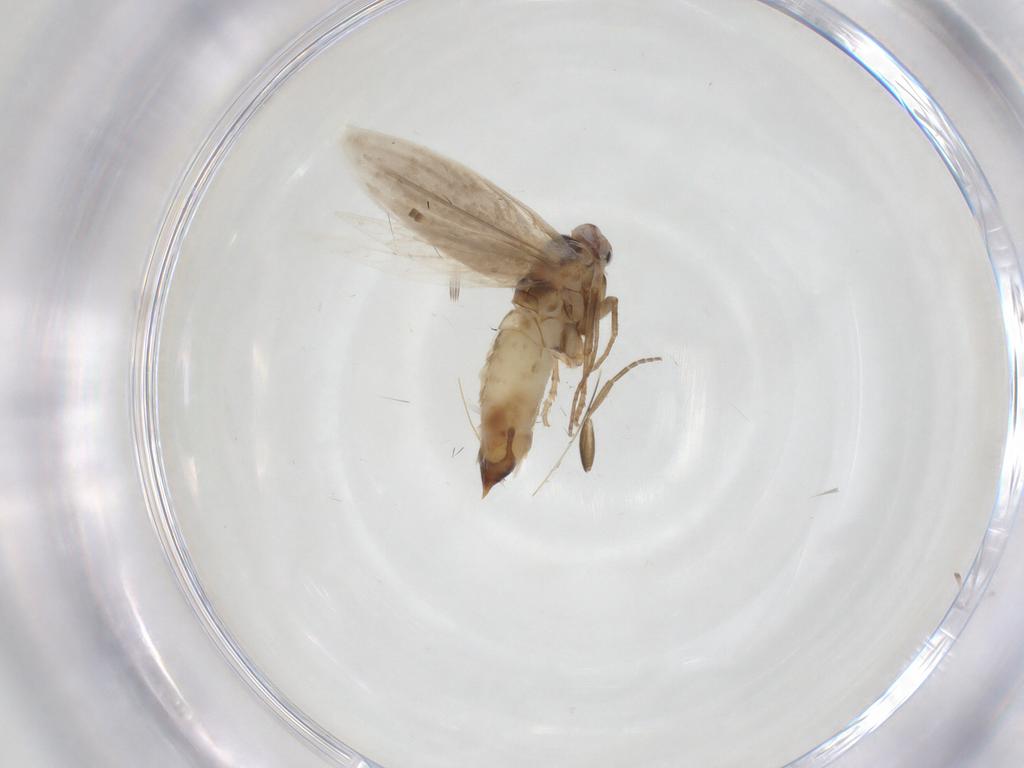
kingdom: Animalia
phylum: Arthropoda
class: Insecta
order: Lepidoptera
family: Bucculatricidae
